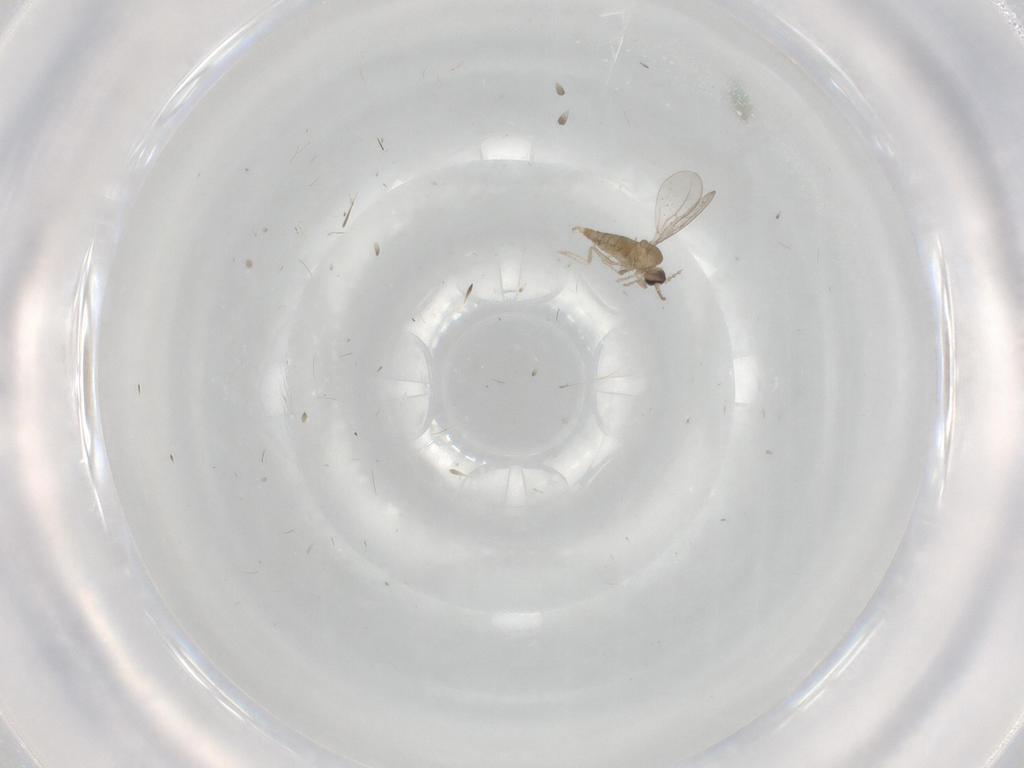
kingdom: Animalia
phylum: Arthropoda
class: Insecta
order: Diptera
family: Cecidomyiidae
